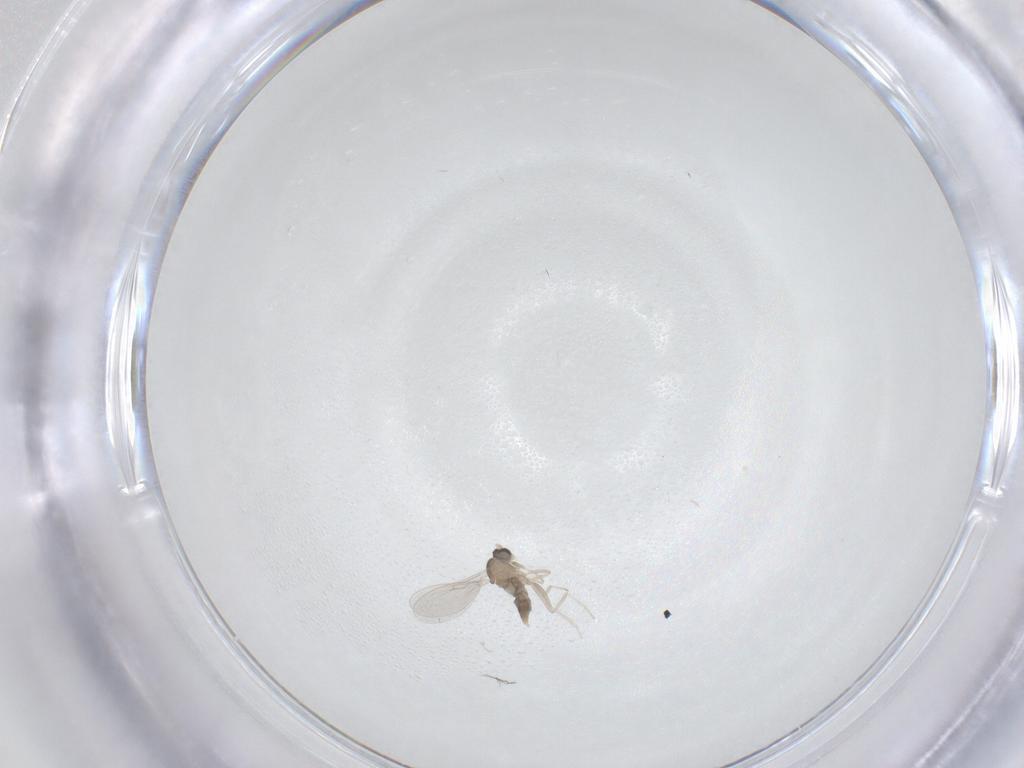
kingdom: Animalia
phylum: Arthropoda
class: Insecta
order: Diptera
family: Cecidomyiidae
